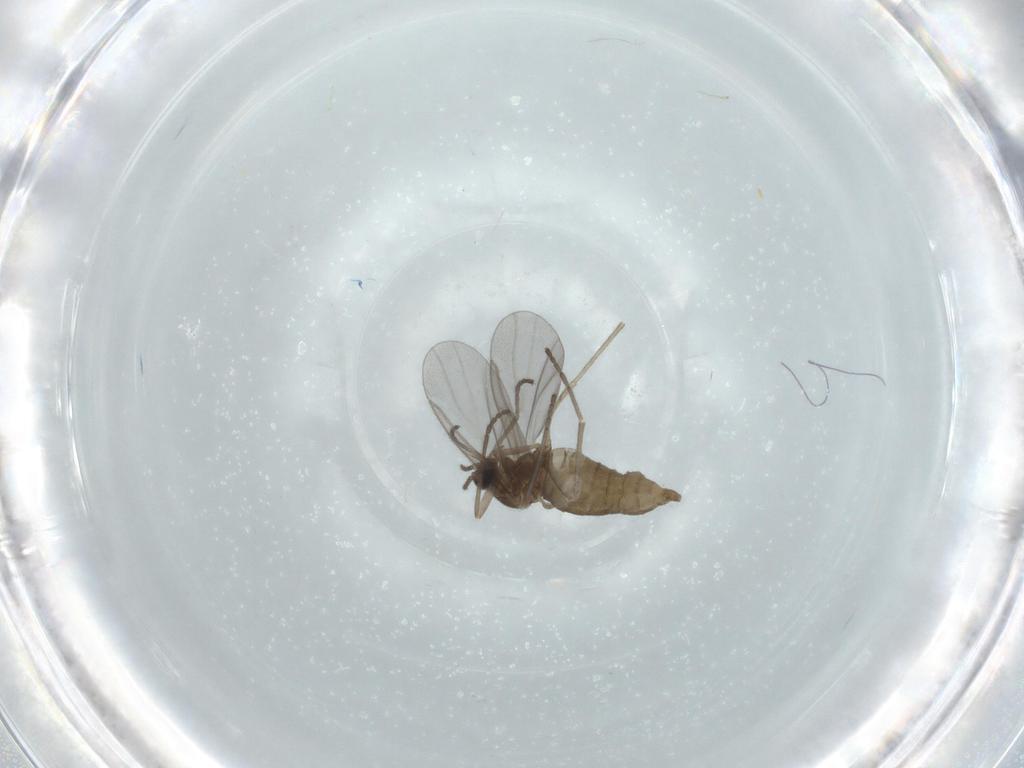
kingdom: Animalia
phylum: Arthropoda
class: Insecta
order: Diptera
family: Cecidomyiidae
